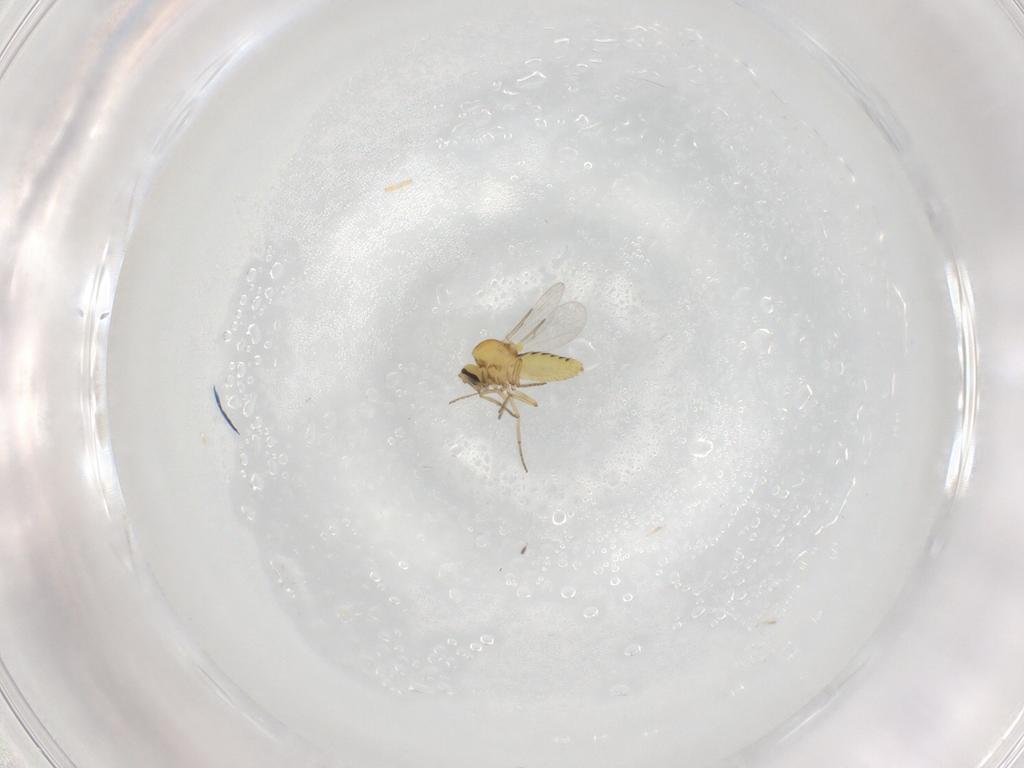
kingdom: Animalia
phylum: Arthropoda
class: Insecta
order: Diptera
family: Ceratopogonidae
